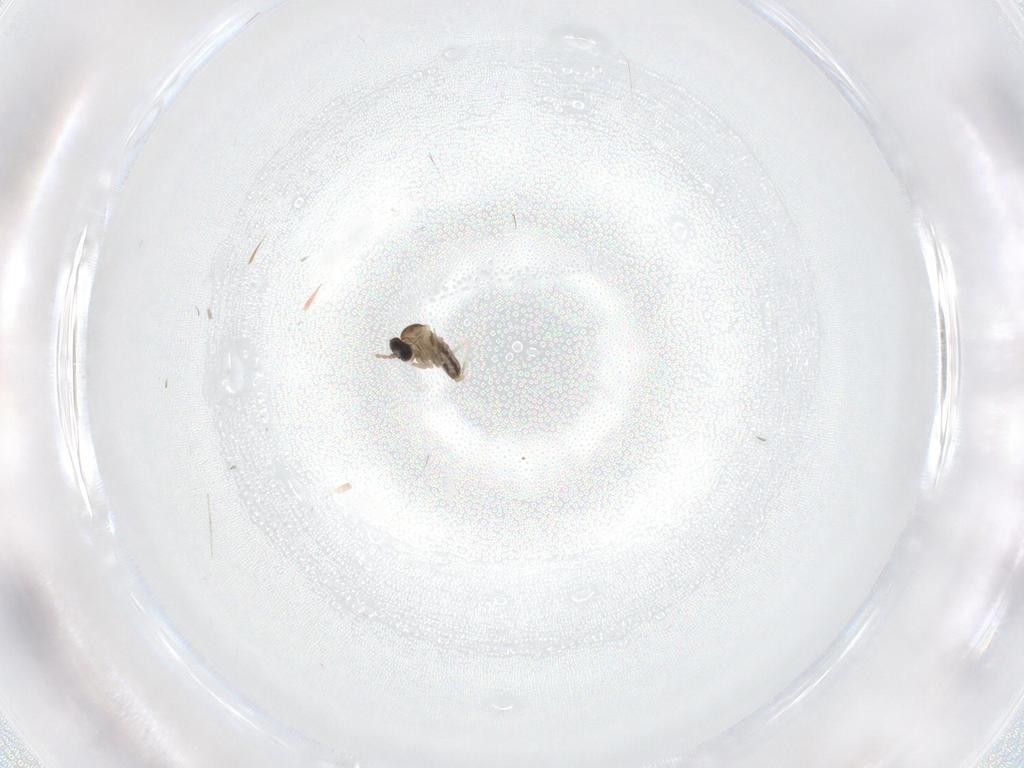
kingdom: Animalia
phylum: Arthropoda
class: Insecta
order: Diptera
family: Cecidomyiidae
